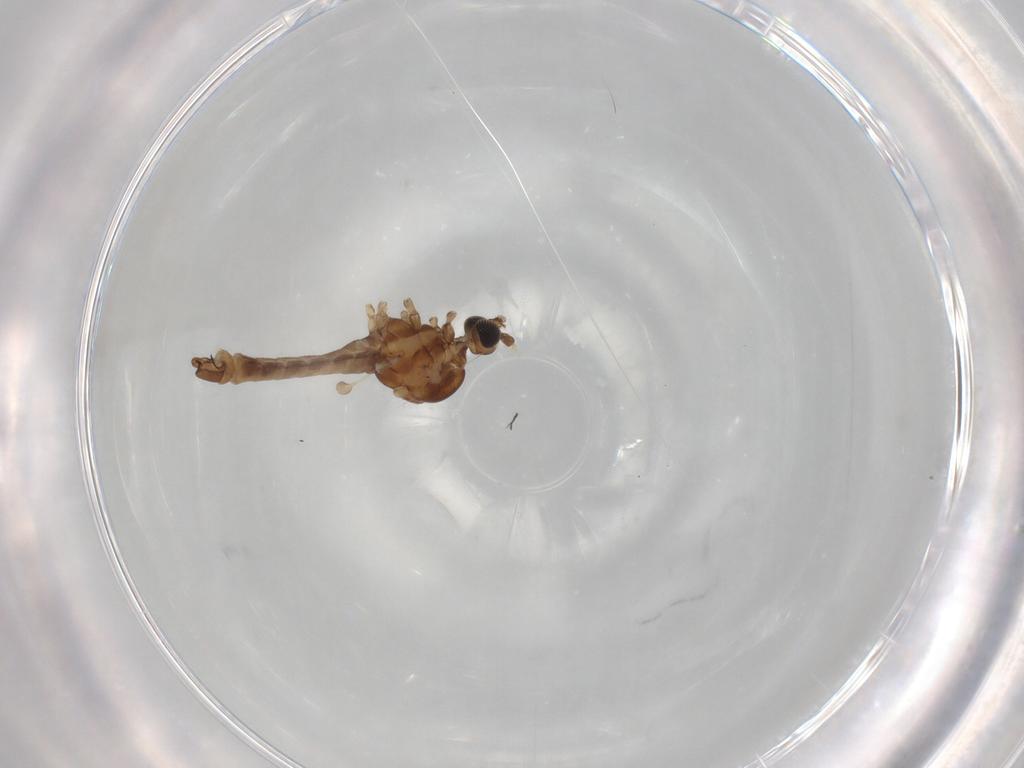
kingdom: Animalia
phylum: Arthropoda
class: Insecta
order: Diptera
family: Limoniidae
